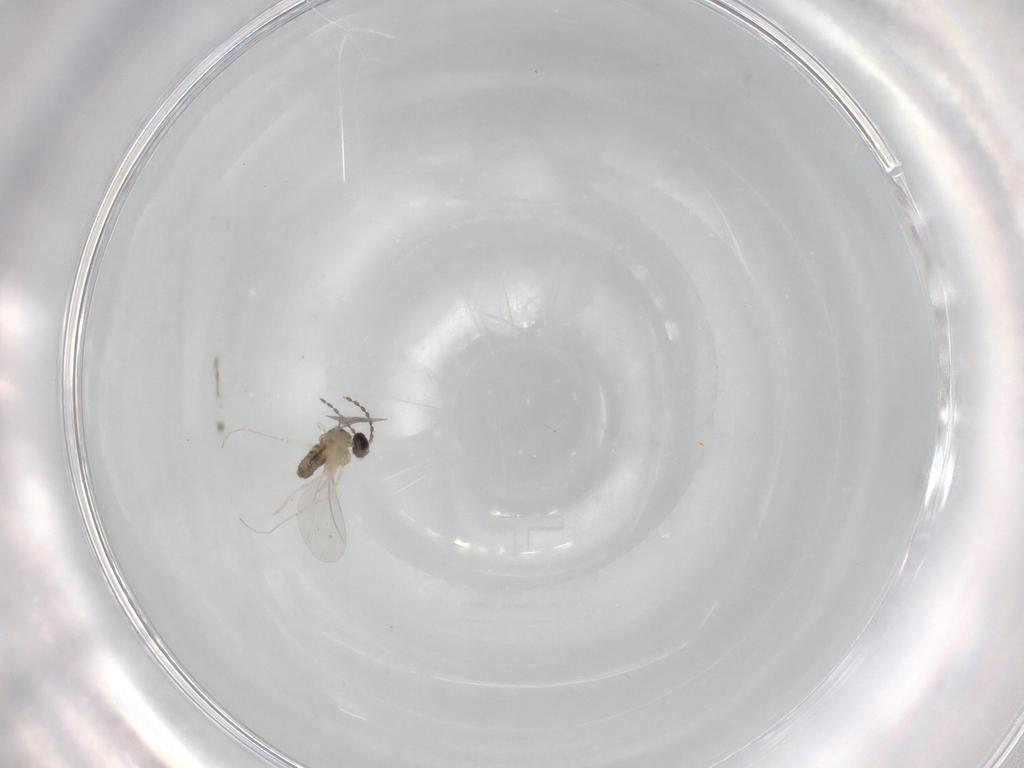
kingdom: Animalia
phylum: Arthropoda
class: Insecta
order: Diptera
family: Cecidomyiidae
